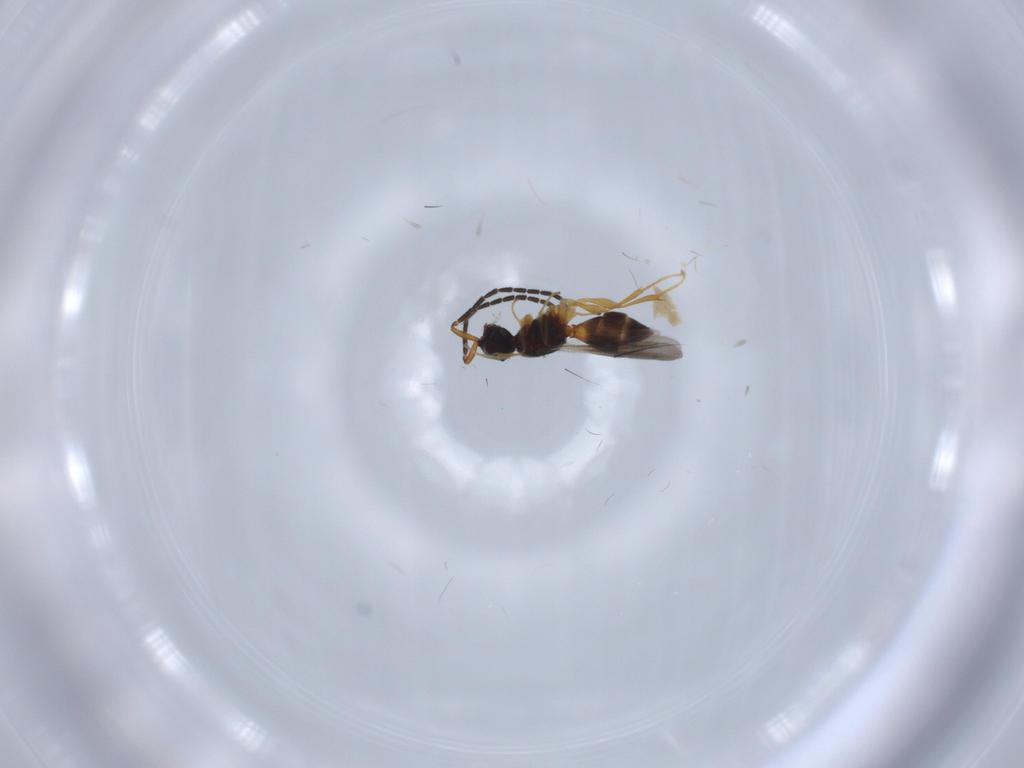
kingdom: Animalia
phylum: Arthropoda
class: Insecta
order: Hymenoptera
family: Tenthredinidae
